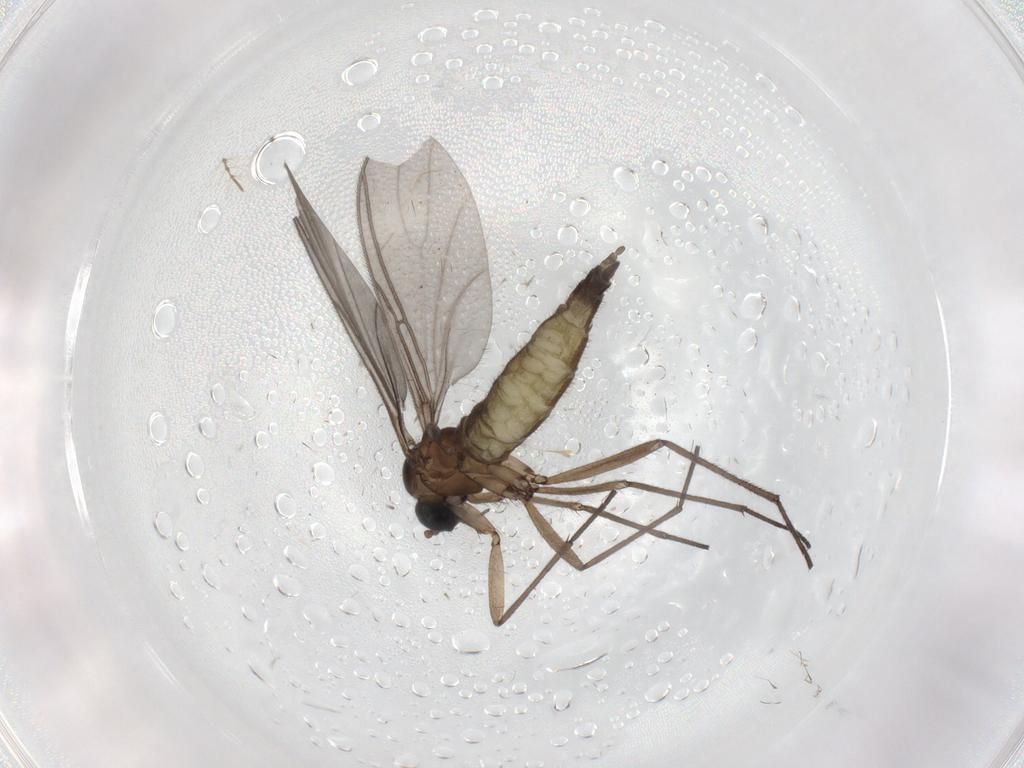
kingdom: Animalia
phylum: Arthropoda
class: Insecta
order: Diptera
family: Sciaridae
